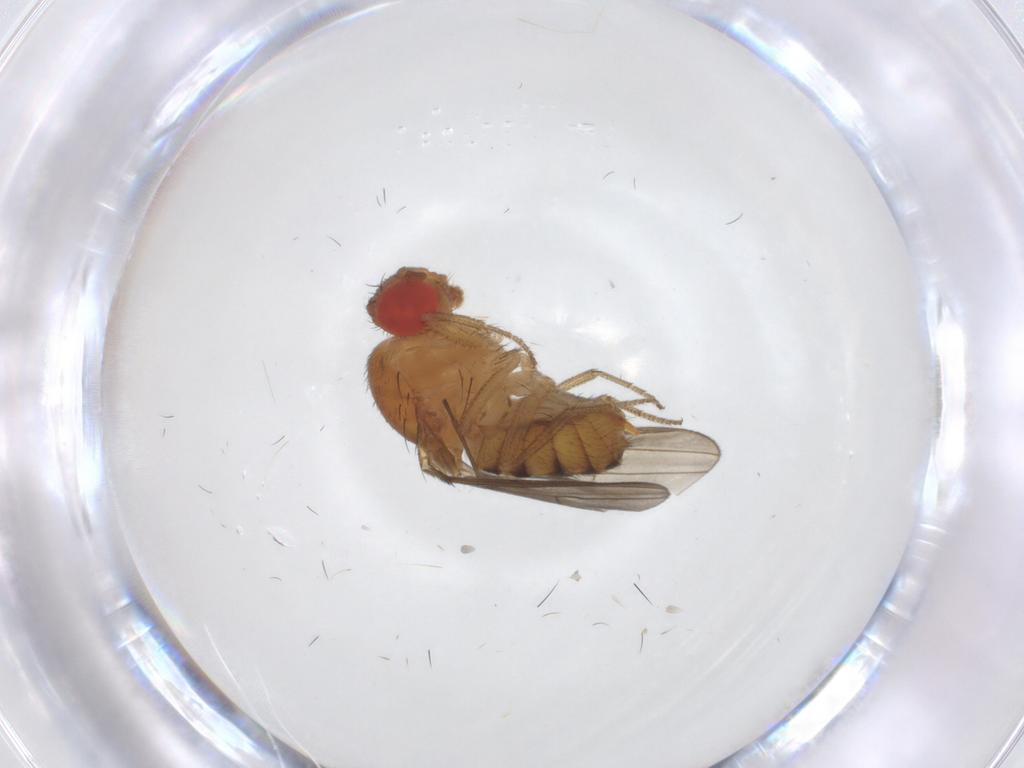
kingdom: Animalia
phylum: Arthropoda
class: Insecta
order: Diptera
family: Drosophilidae
